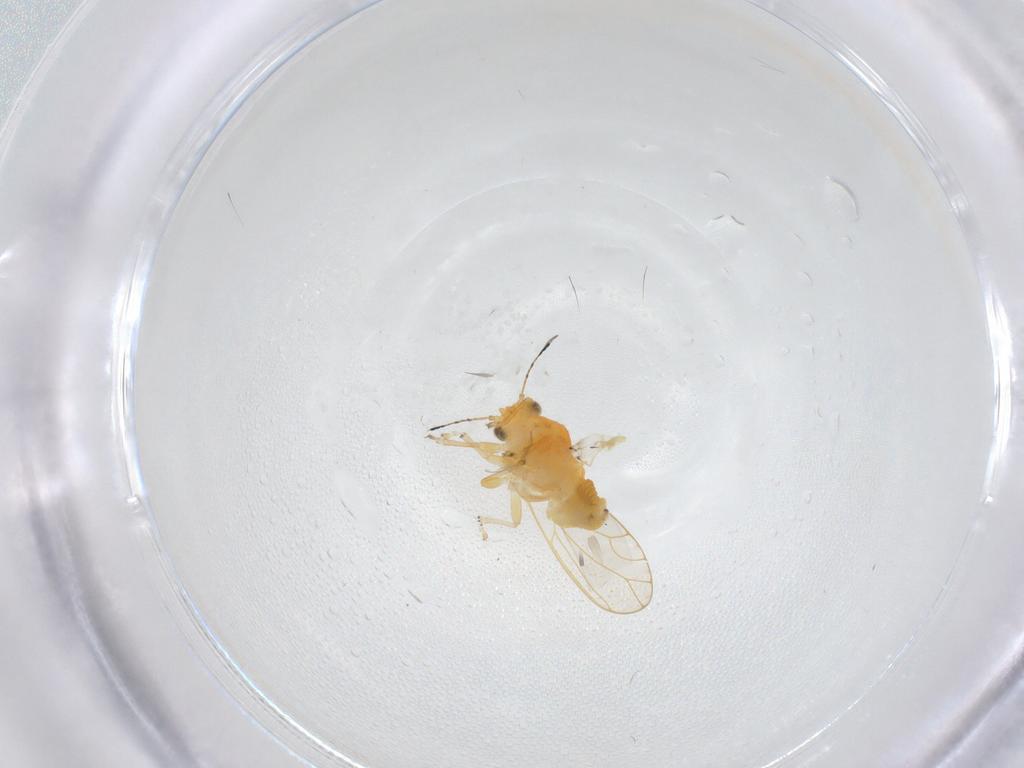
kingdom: Animalia
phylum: Arthropoda
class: Insecta
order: Hemiptera
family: Triozidae
